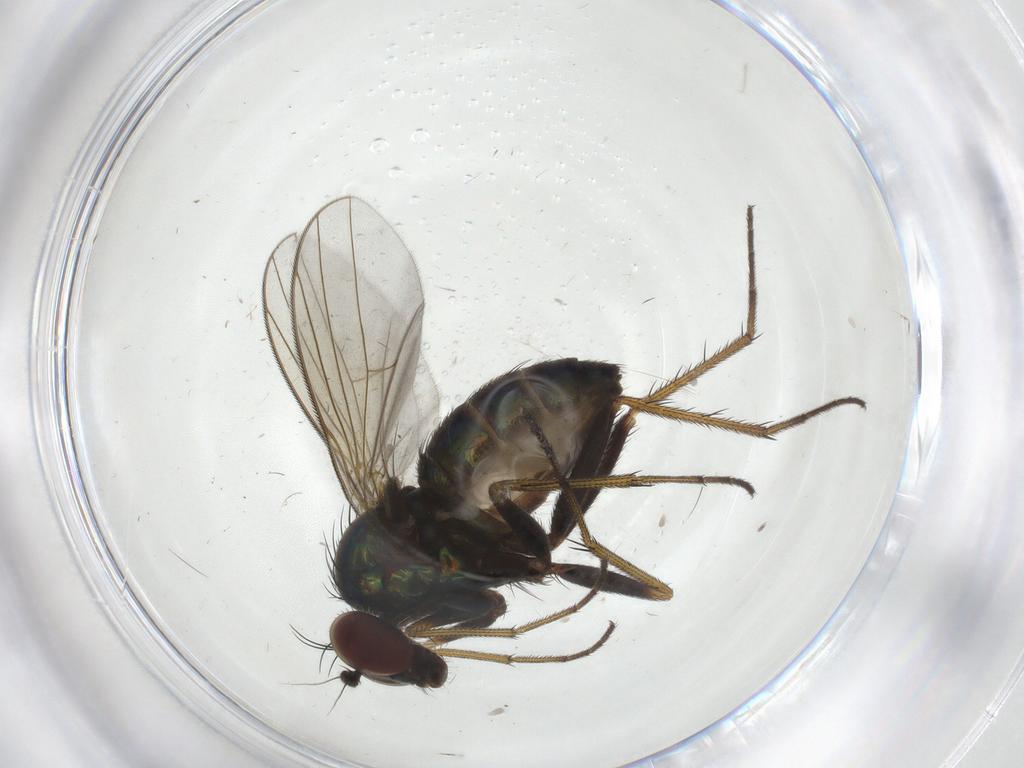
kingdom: Animalia
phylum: Arthropoda
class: Insecta
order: Diptera
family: Dolichopodidae
